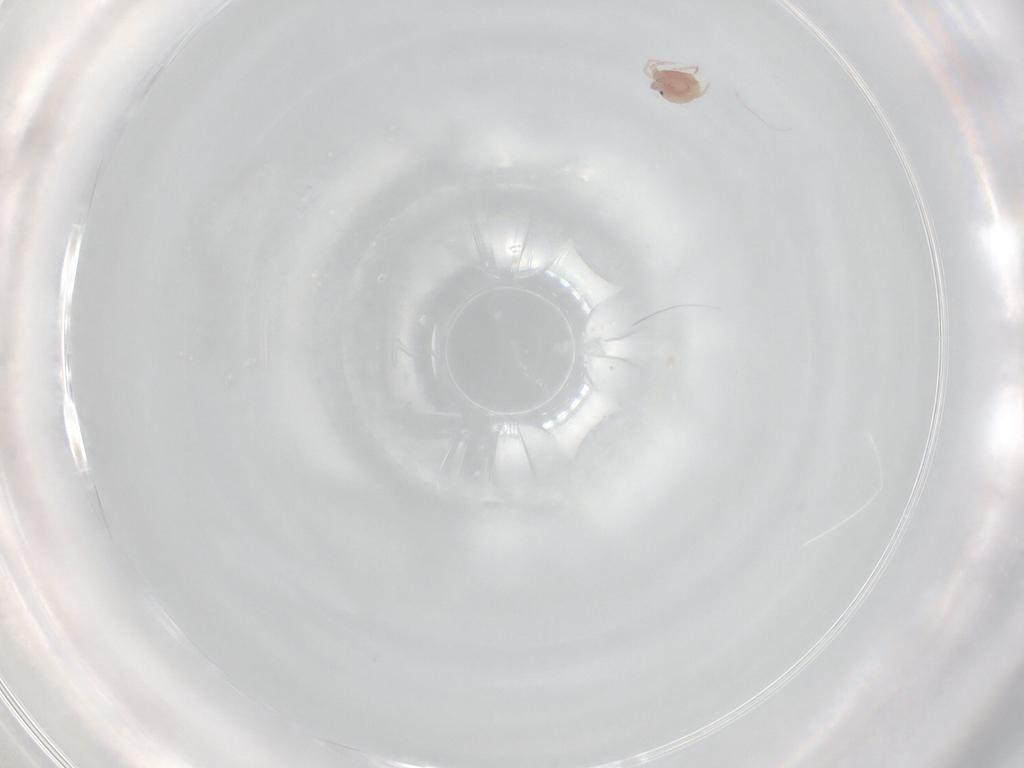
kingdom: Animalia
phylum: Arthropoda
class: Arachnida
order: Trombidiformes
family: Lebertiidae
